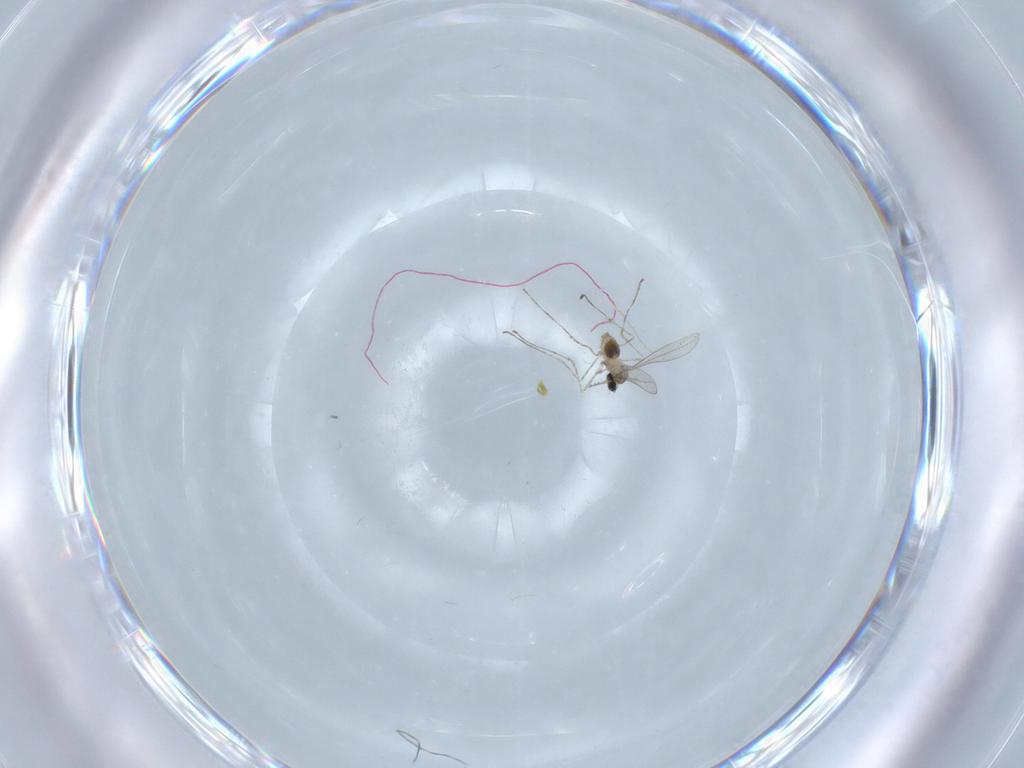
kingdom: Animalia
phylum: Arthropoda
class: Insecta
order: Diptera
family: Cecidomyiidae
